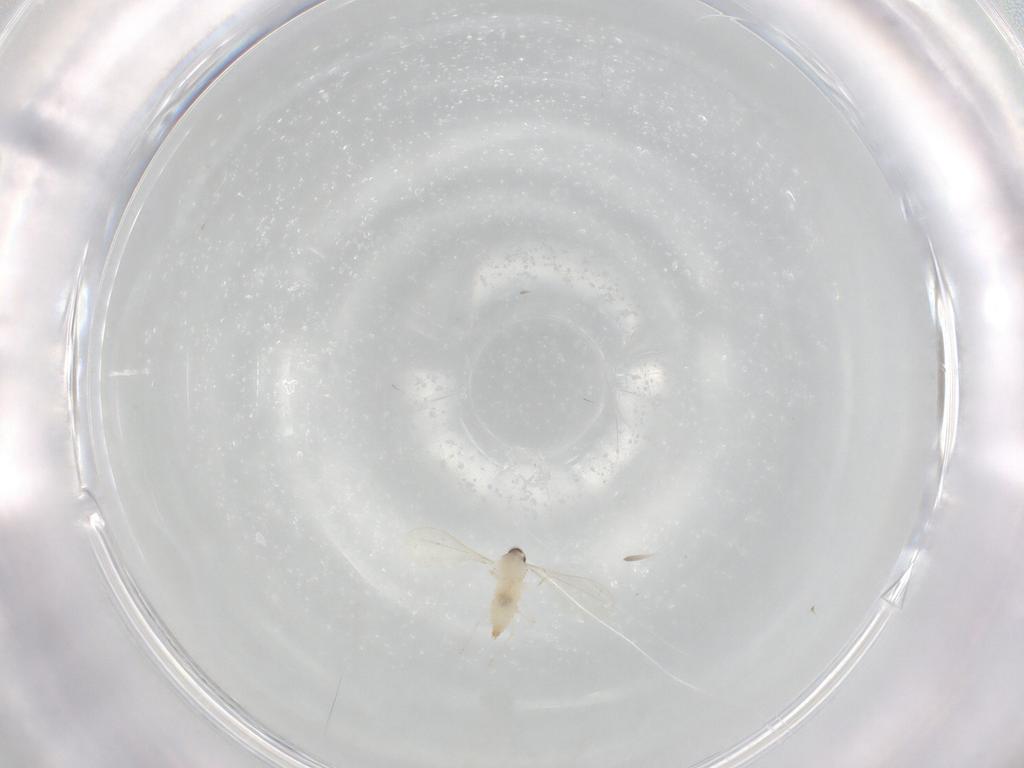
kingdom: Animalia
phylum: Arthropoda
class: Insecta
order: Diptera
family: Cecidomyiidae
